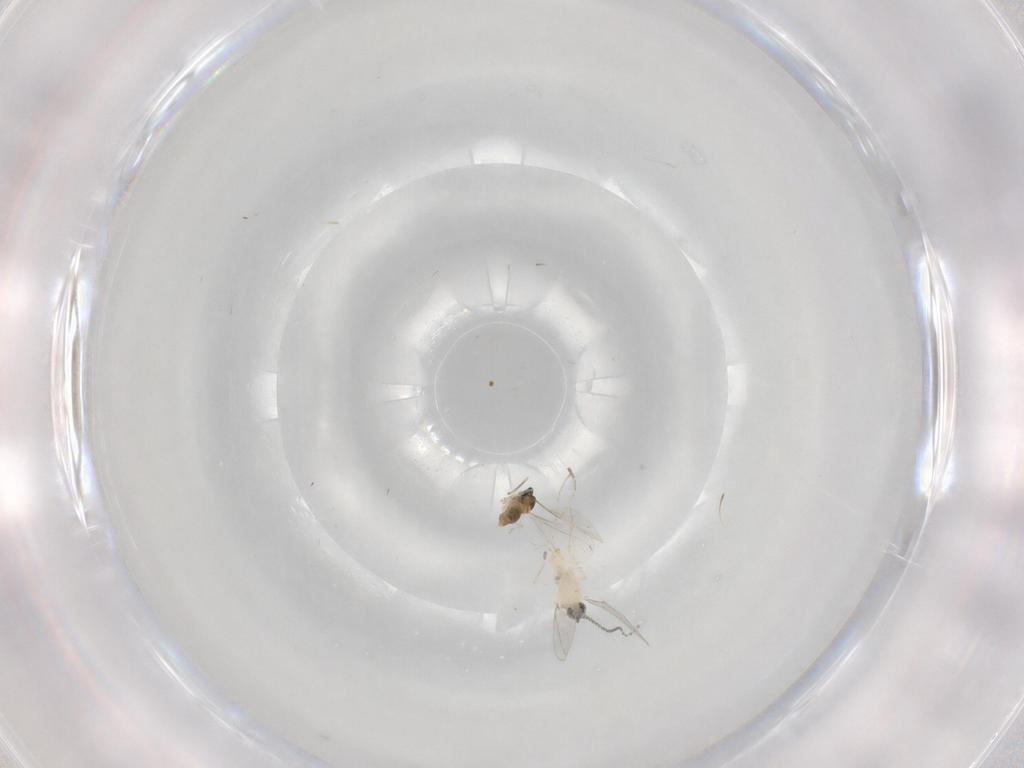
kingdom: Animalia
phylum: Arthropoda
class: Insecta
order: Diptera
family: Cecidomyiidae
